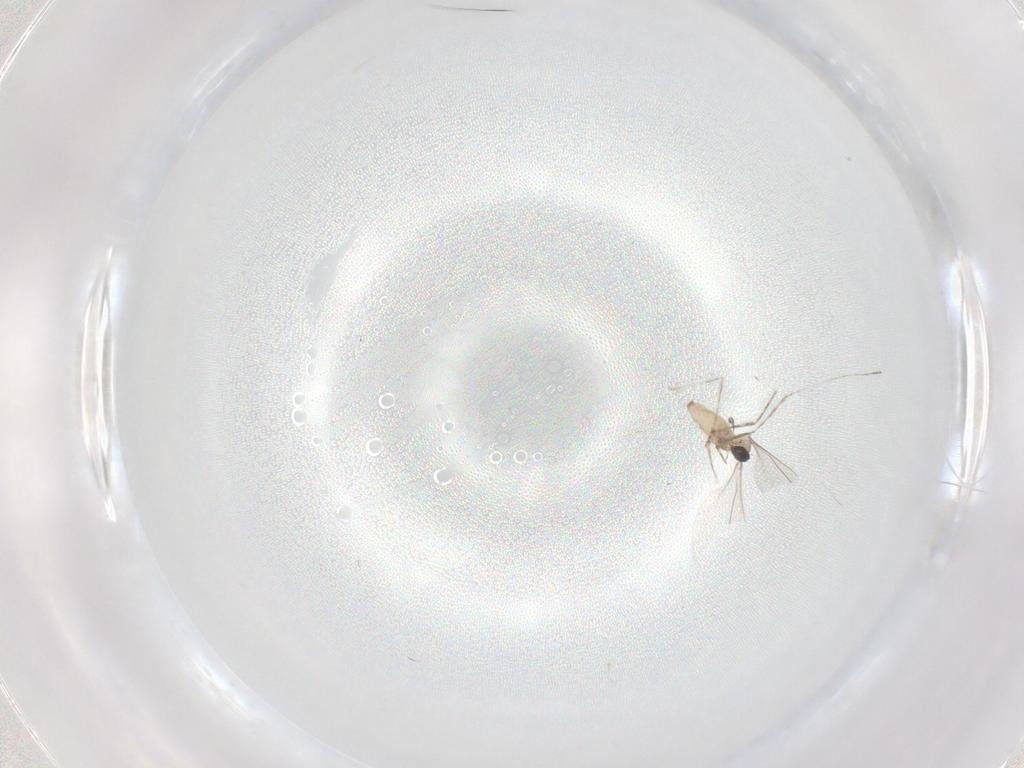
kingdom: Animalia
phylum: Arthropoda
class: Insecta
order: Diptera
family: Cecidomyiidae
